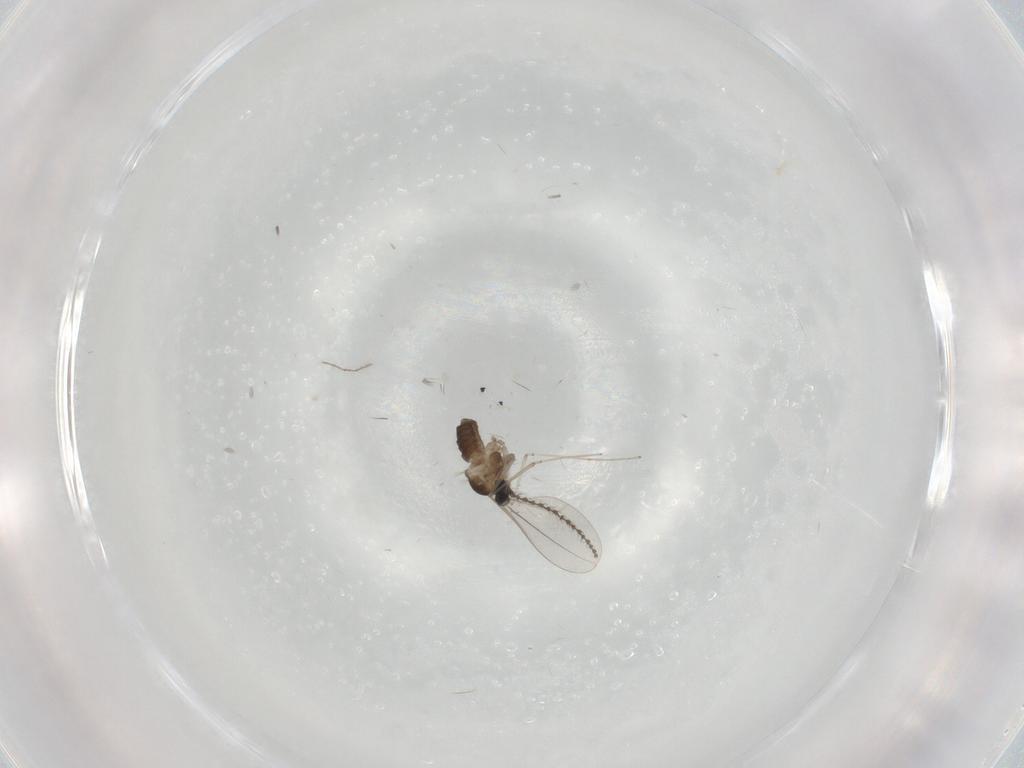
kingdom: Animalia
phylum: Arthropoda
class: Insecta
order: Diptera
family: Cecidomyiidae
